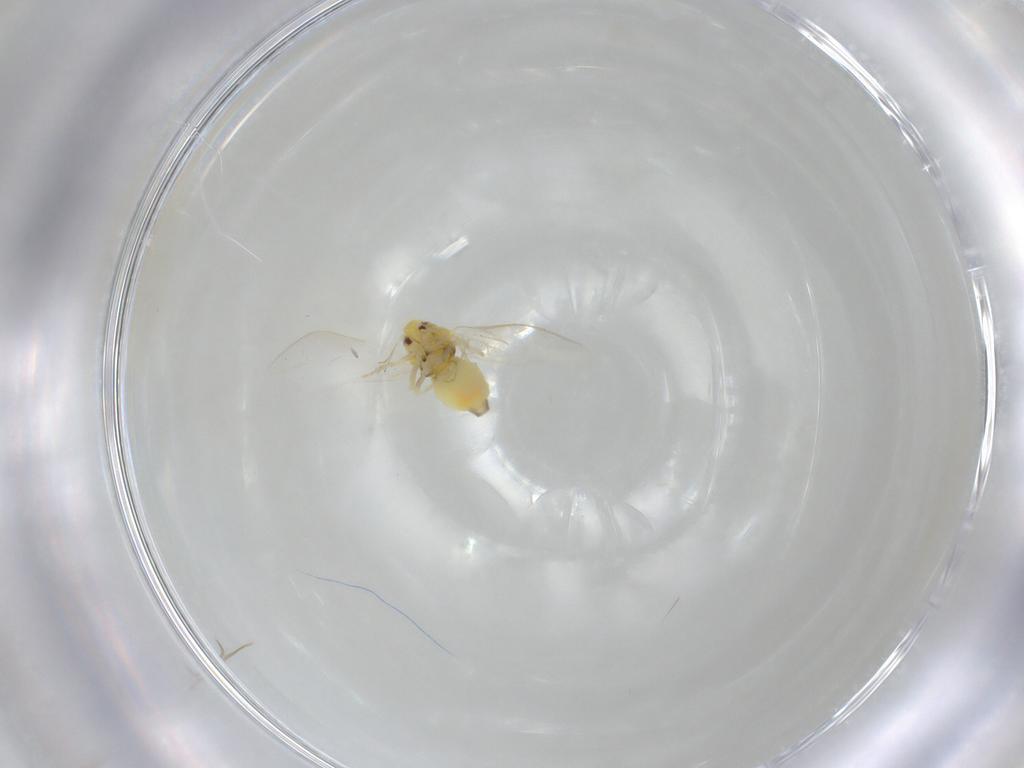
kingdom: Animalia
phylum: Arthropoda
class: Insecta
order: Hemiptera
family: Aleyrodidae
